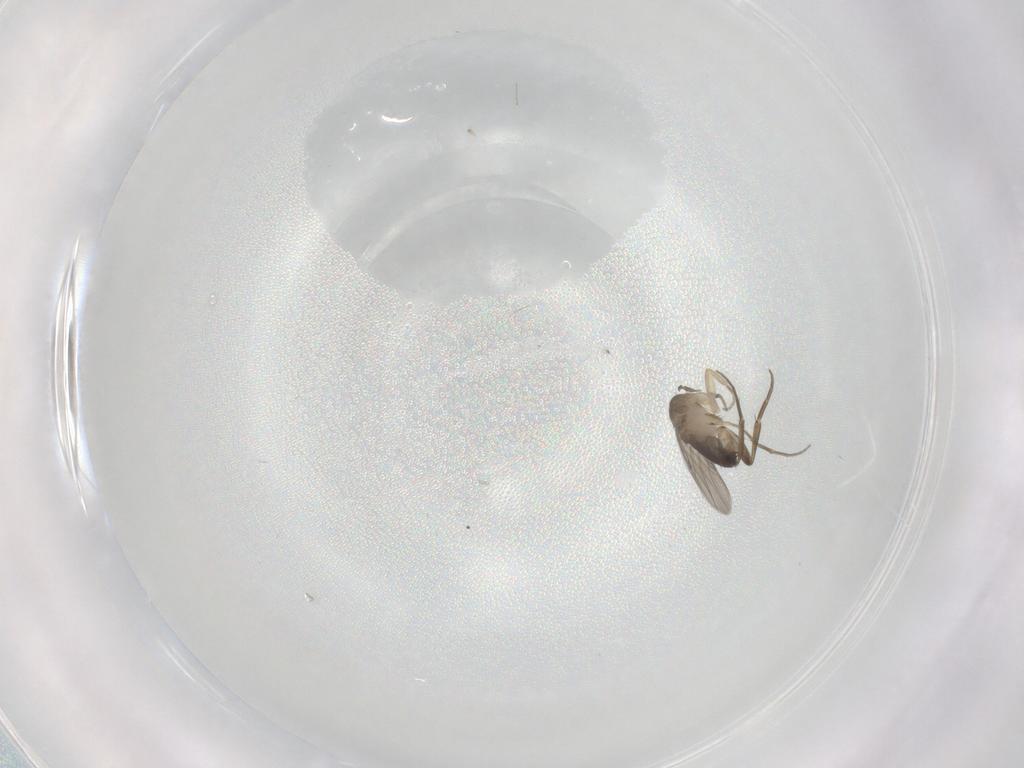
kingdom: Animalia
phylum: Arthropoda
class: Insecta
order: Diptera
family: Cecidomyiidae
